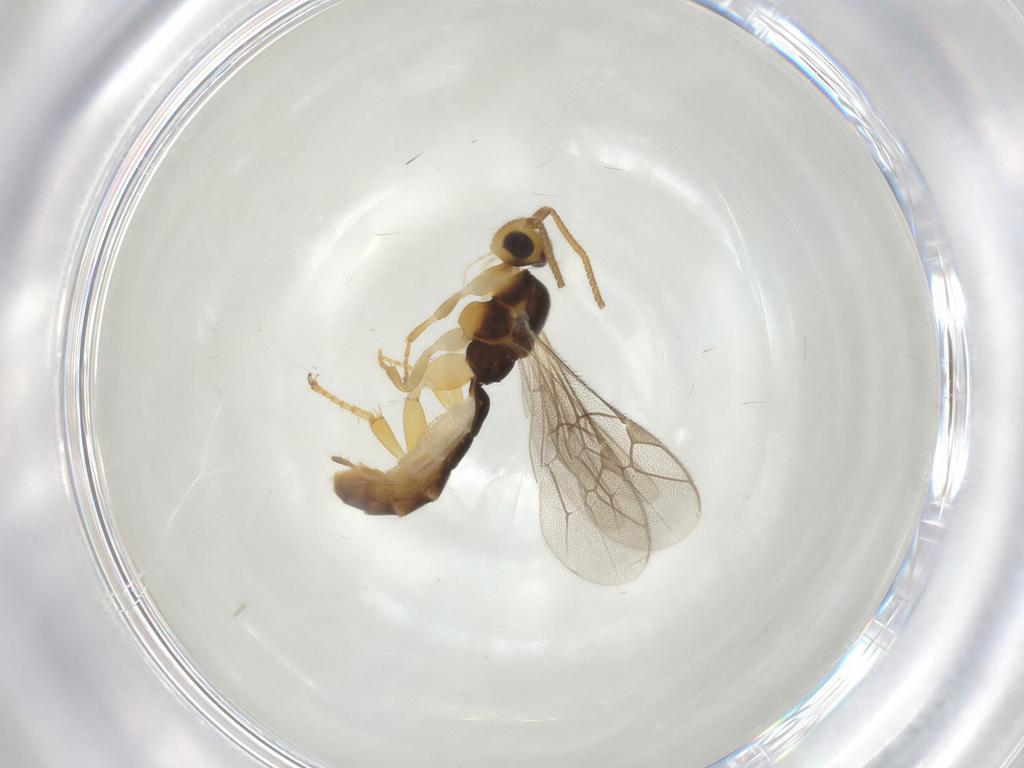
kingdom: Animalia
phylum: Arthropoda
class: Insecta
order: Hymenoptera
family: Ichneumonidae
